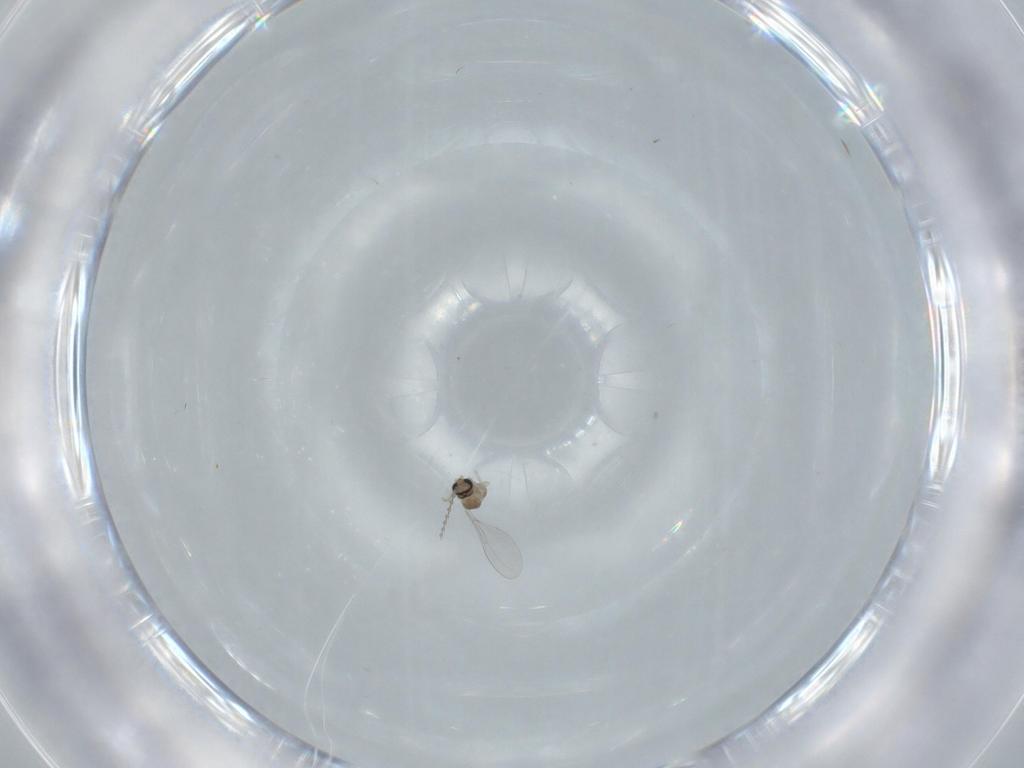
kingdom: Animalia
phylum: Arthropoda
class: Insecta
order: Diptera
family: Cecidomyiidae
